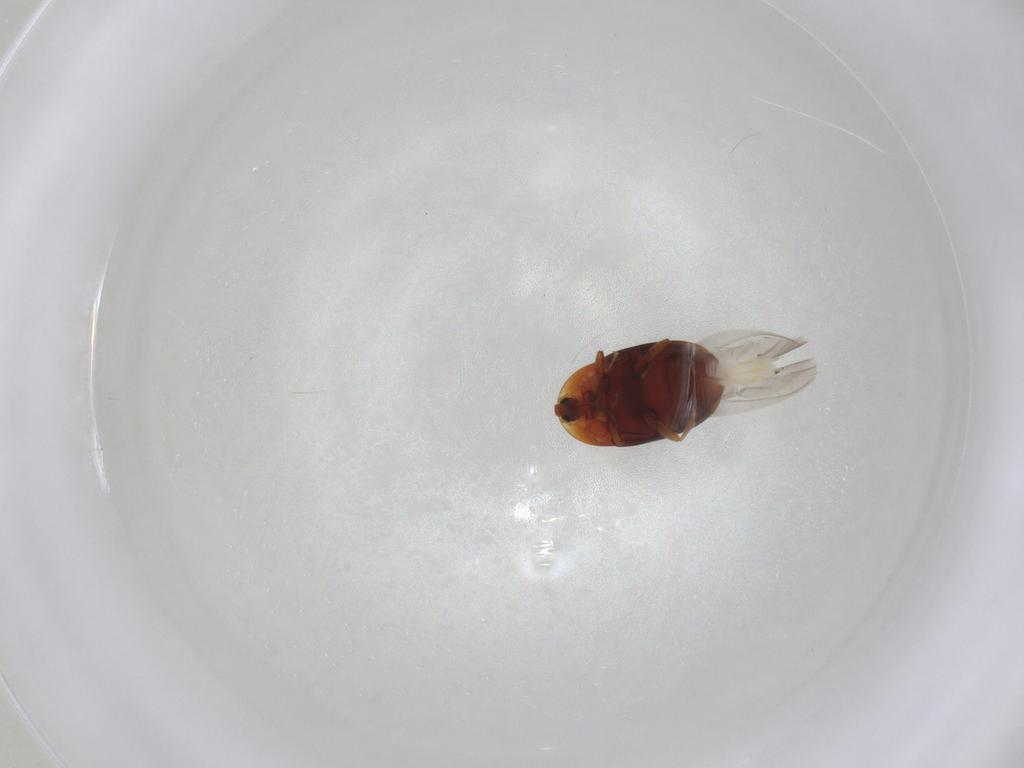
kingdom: Animalia
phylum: Arthropoda
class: Insecta
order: Coleoptera
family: Corylophidae
